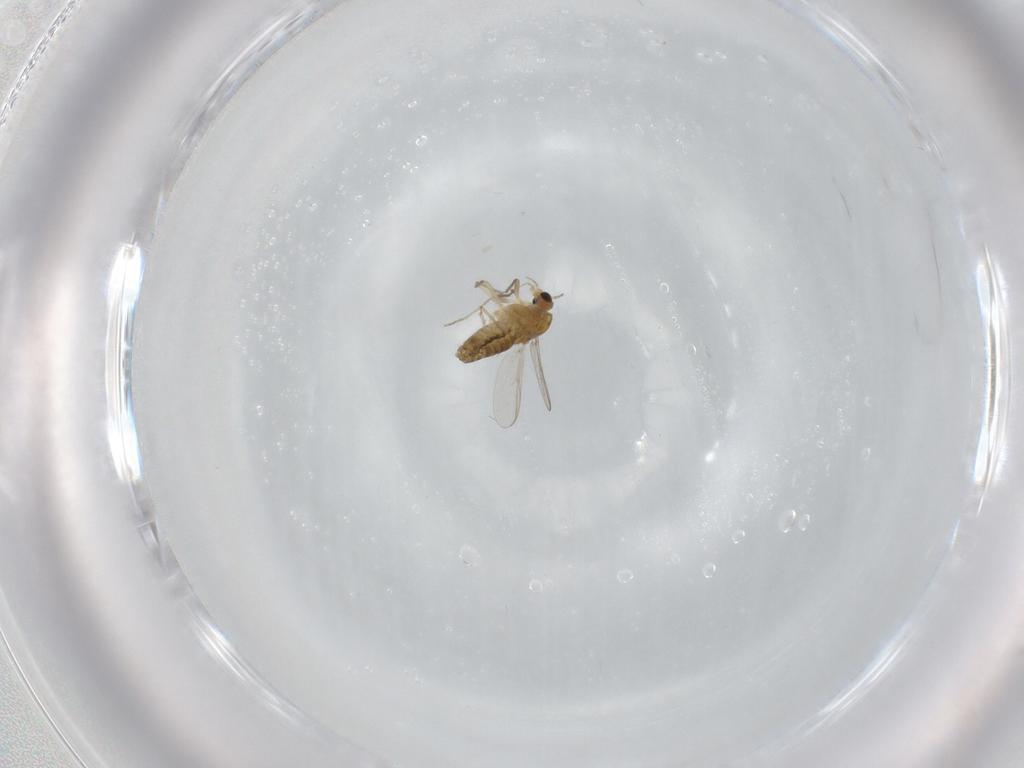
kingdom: Animalia
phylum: Arthropoda
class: Insecta
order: Diptera
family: Chironomidae
